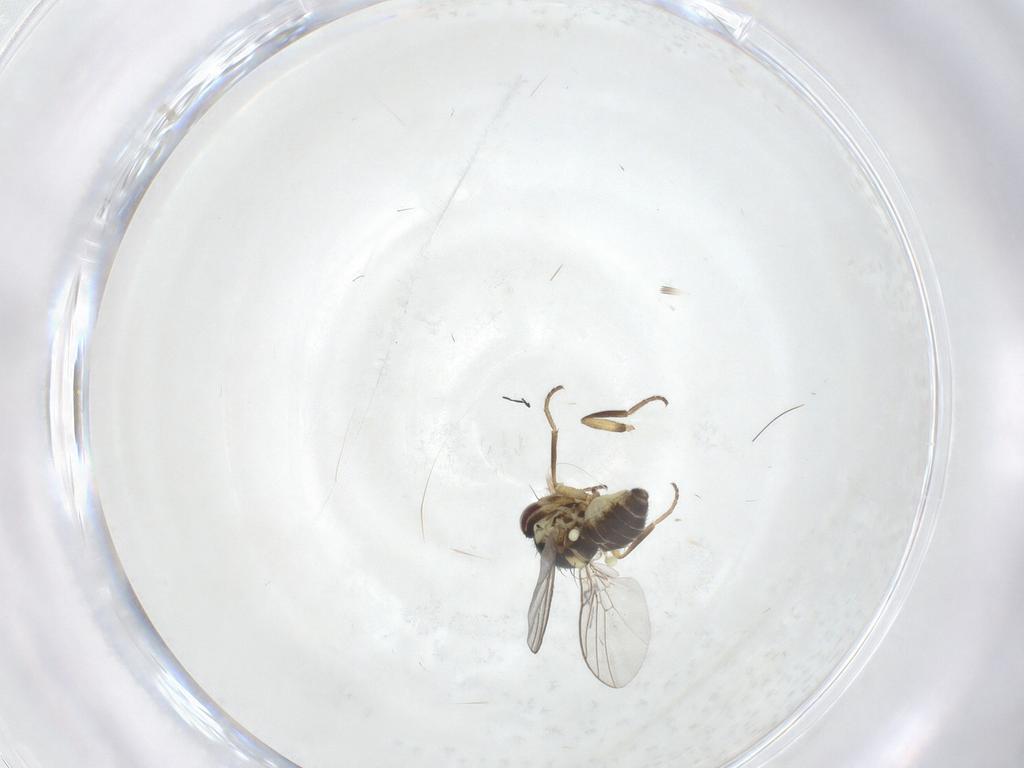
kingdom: Animalia
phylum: Arthropoda
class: Insecta
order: Diptera
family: Agromyzidae
